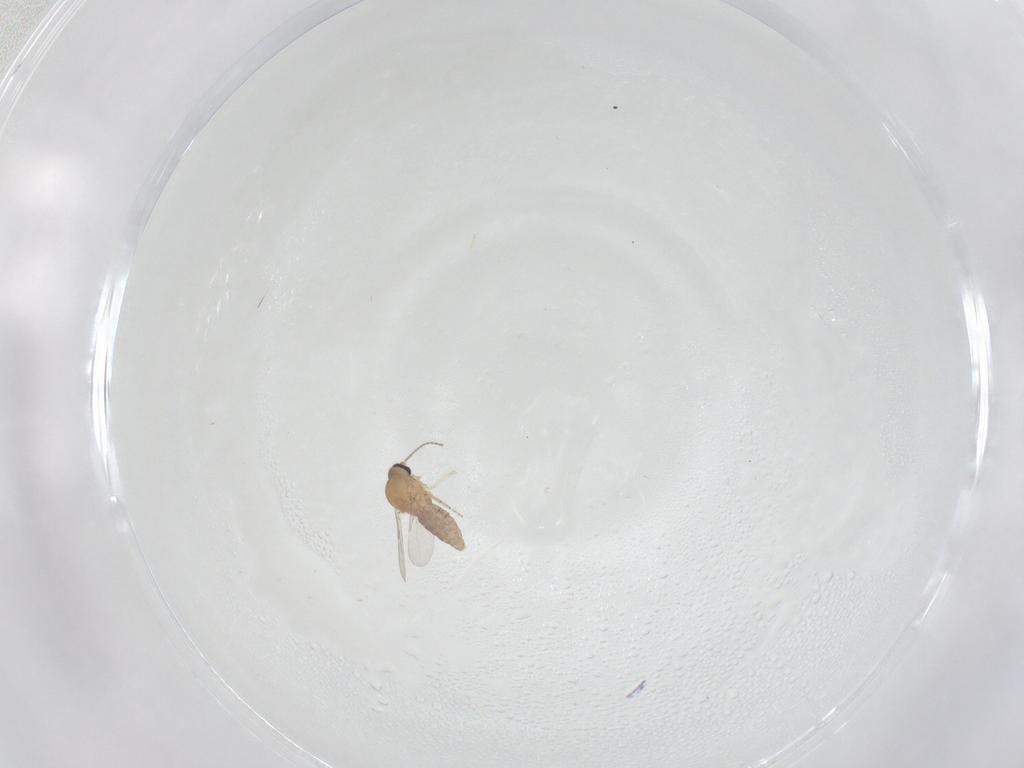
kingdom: Animalia
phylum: Arthropoda
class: Insecta
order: Diptera
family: Ceratopogonidae
